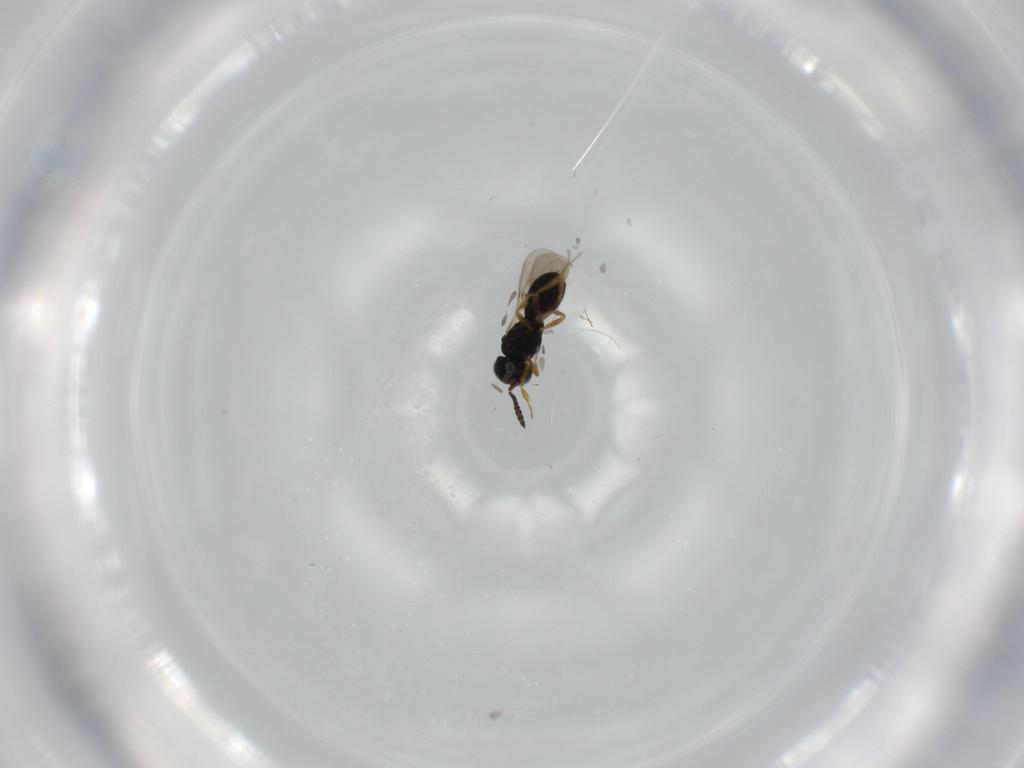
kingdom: Animalia
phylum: Arthropoda
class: Insecta
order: Hymenoptera
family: Scelionidae
